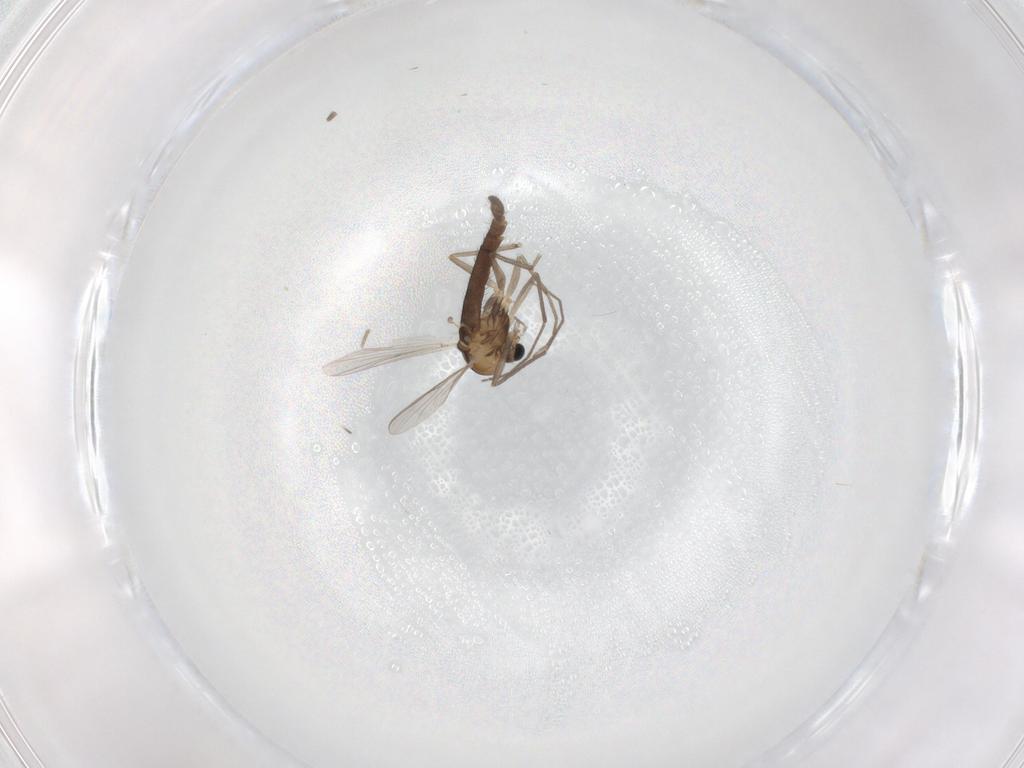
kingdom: Animalia
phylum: Arthropoda
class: Insecta
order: Diptera
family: Chironomidae
